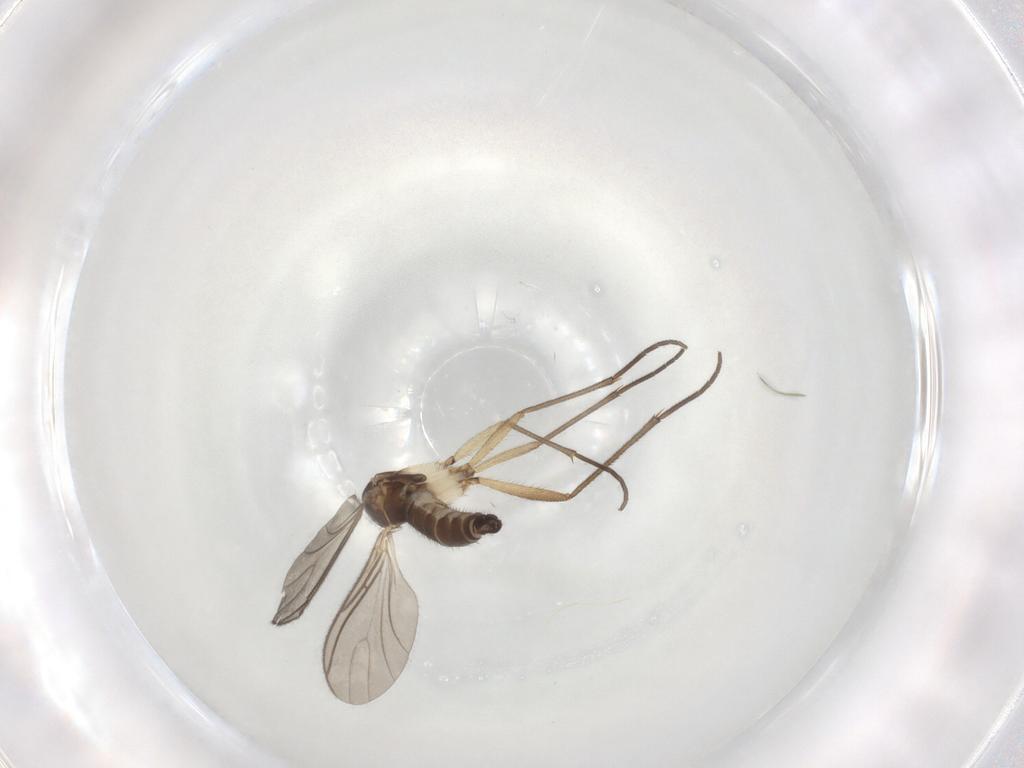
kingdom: Animalia
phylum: Arthropoda
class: Insecta
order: Diptera
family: Sciaridae
